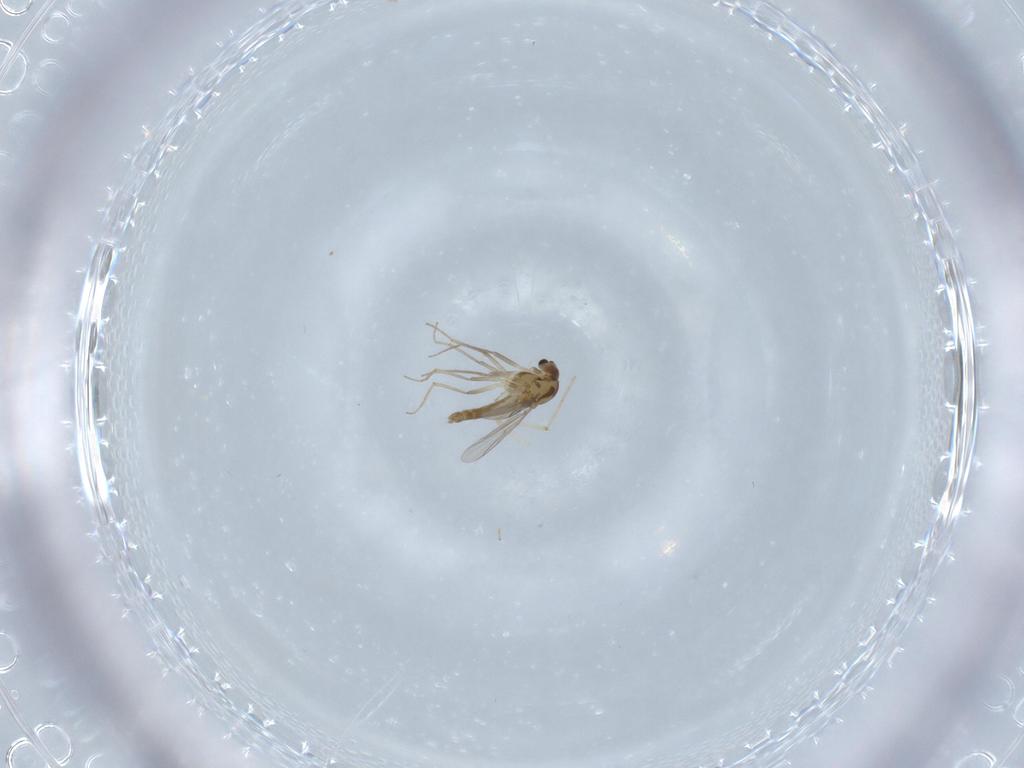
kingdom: Animalia
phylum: Arthropoda
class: Insecta
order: Diptera
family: Chironomidae
